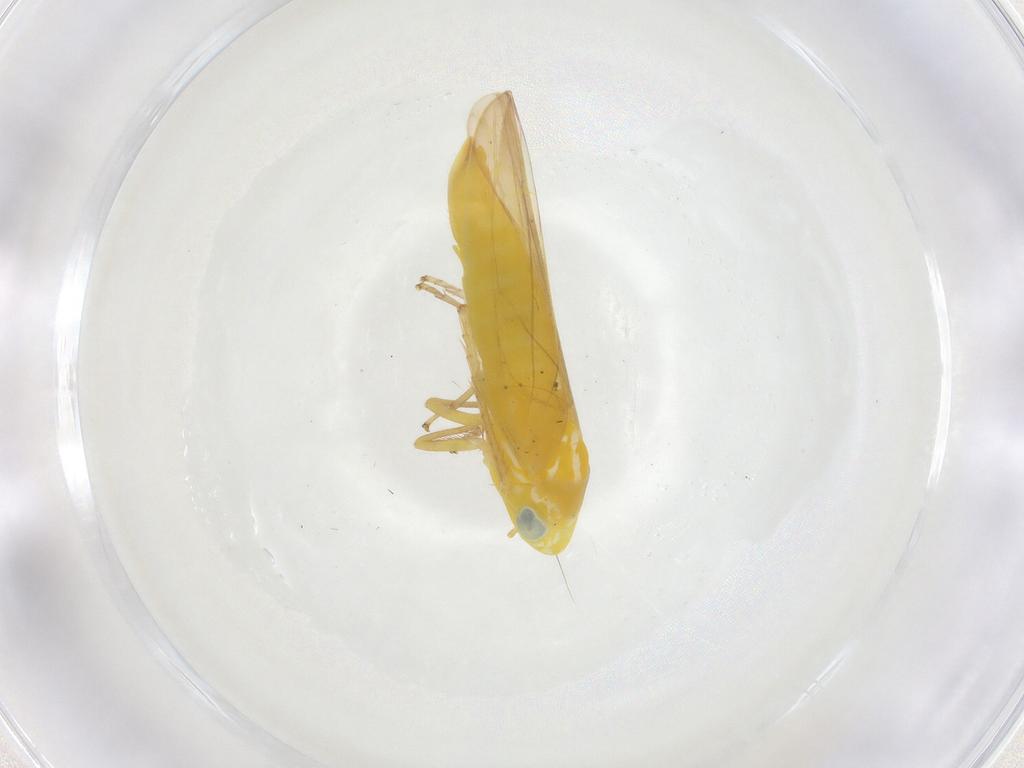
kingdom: Animalia
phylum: Arthropoda
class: Insecta
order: Hemiptera
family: Cicadellidae
